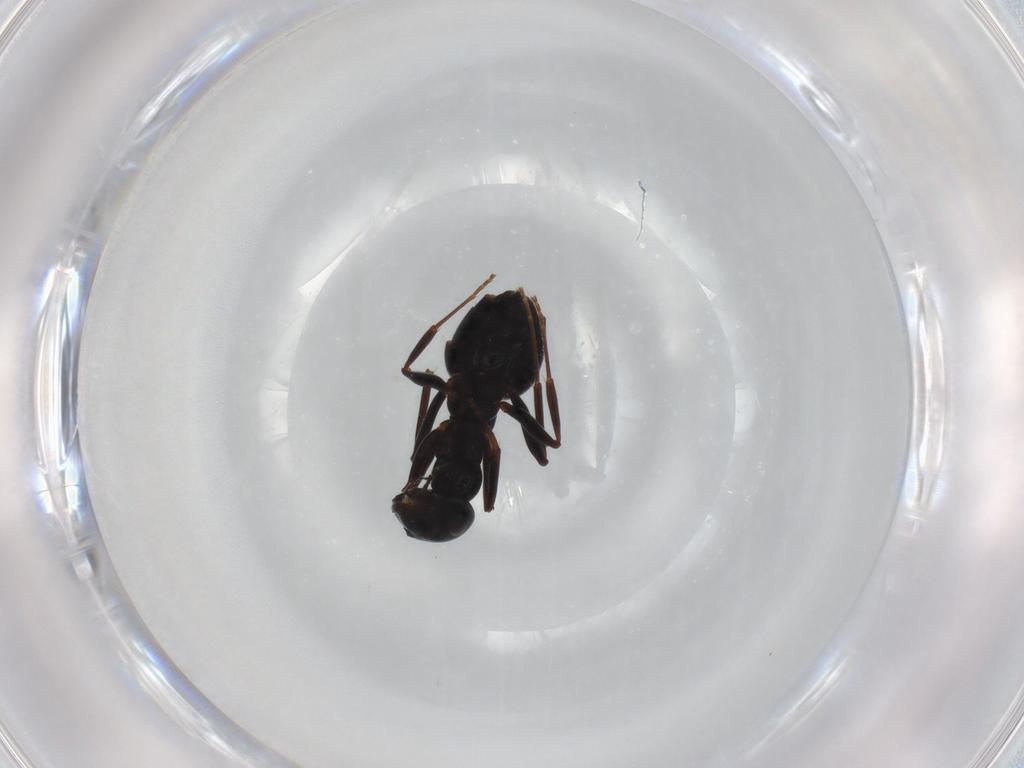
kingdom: Animalia
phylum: Arthropoda
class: Insecta
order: Hymenoptera
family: Formicidae
